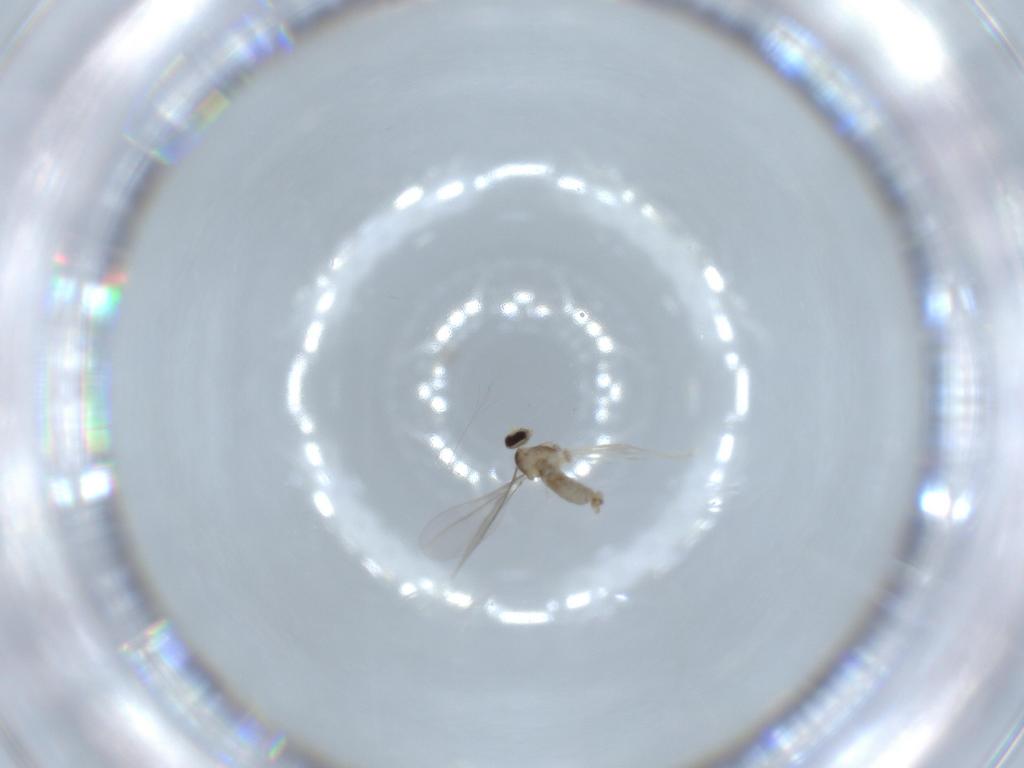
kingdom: Animalia
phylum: Arthropoda
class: Insecta
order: Diptera
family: Cecidomyiidae
